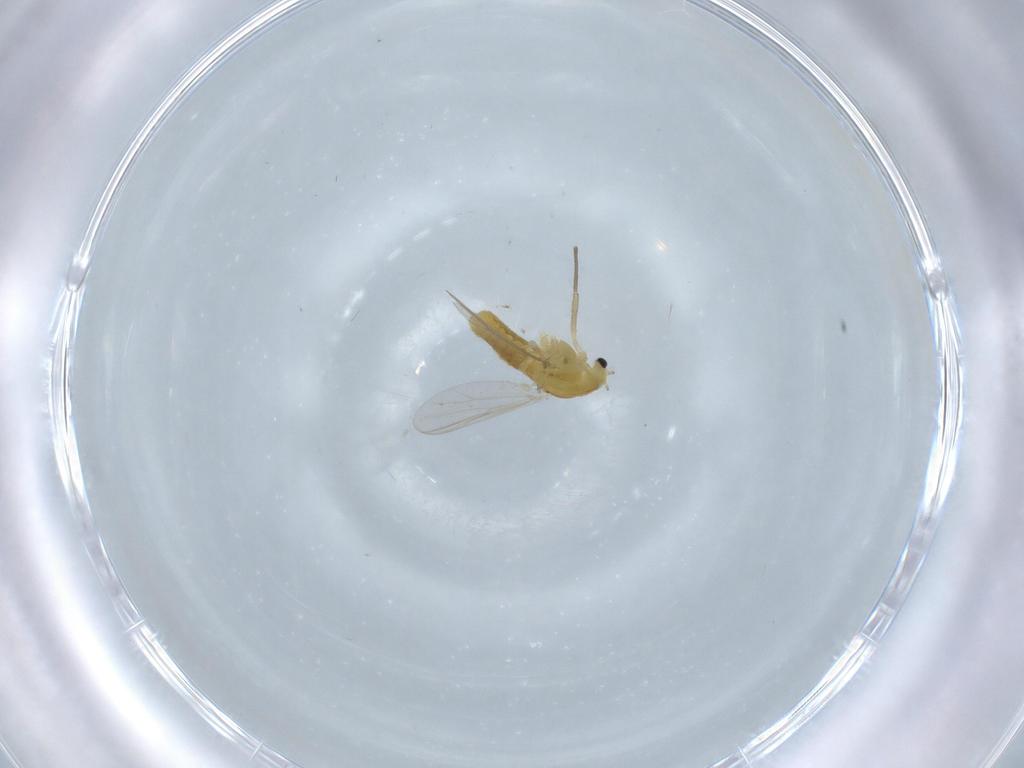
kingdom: Animalia
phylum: Arthropoda
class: Insecta
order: Diptera
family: Chironomidae
